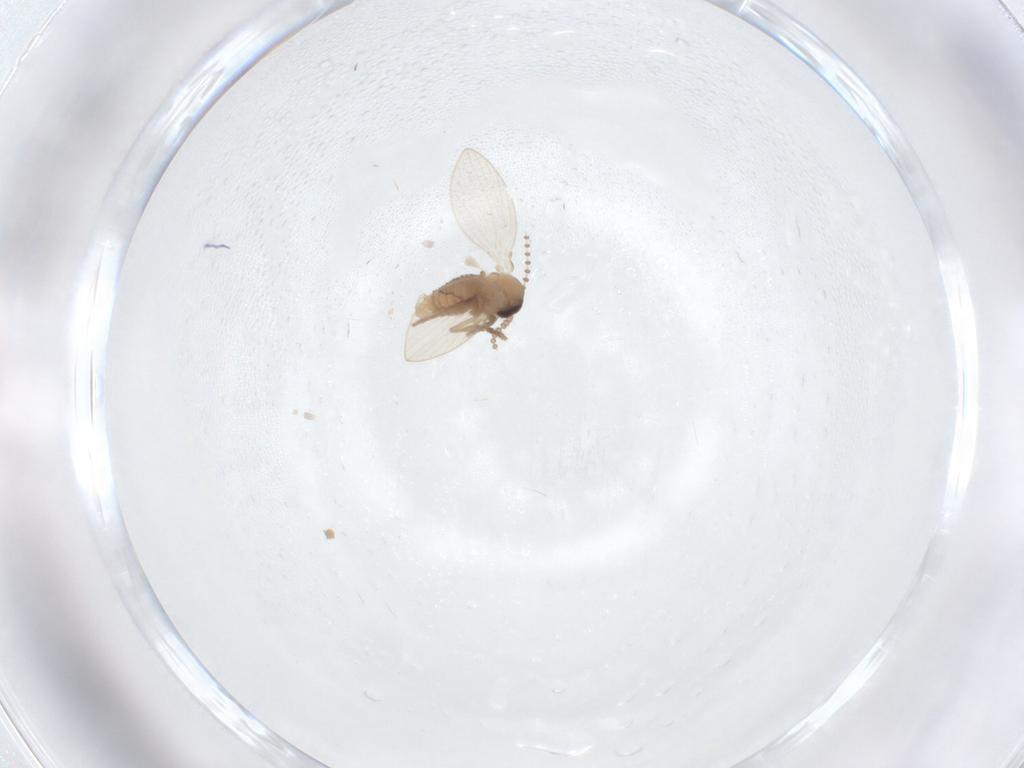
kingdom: Animalia
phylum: Arthropoda
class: Insecta
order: Diptera
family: Psychodidae
